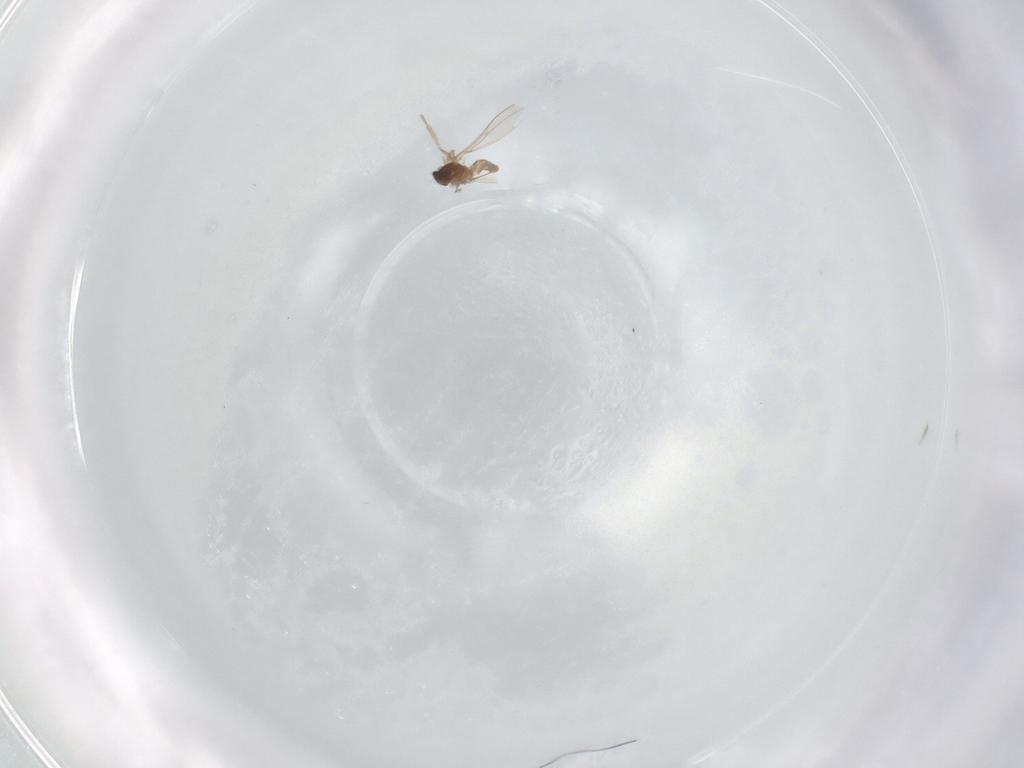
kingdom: Animalia
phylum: Arthropoda
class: Insecta
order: Diptera
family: Cecidomyiidae
